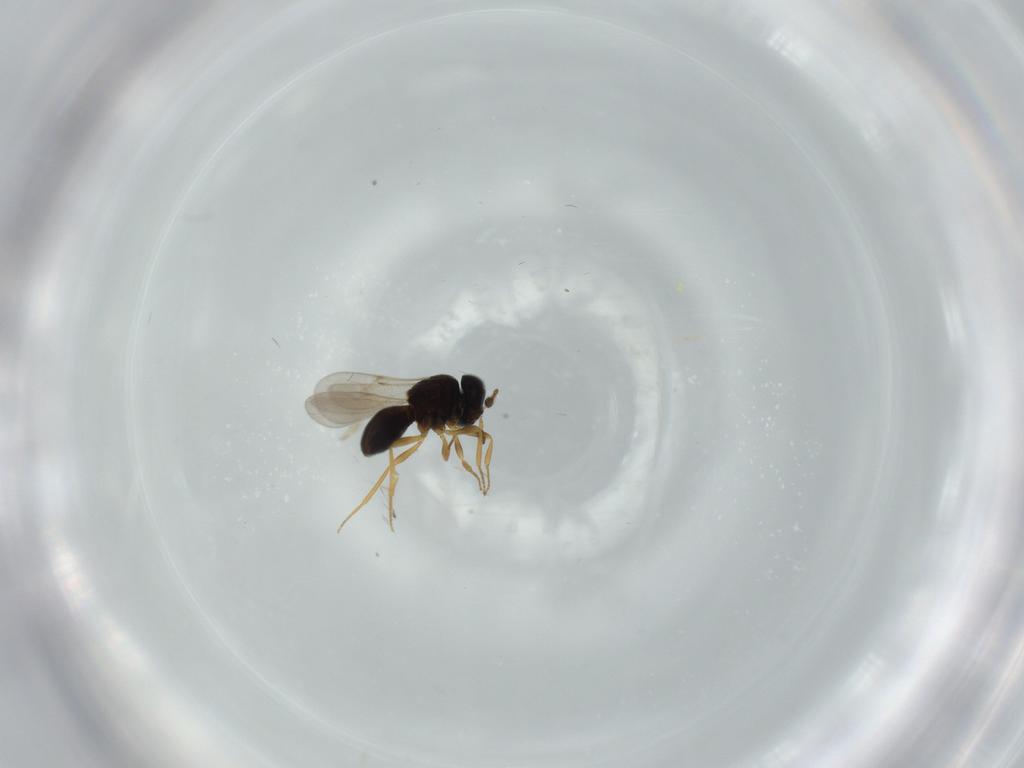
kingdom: Animalia
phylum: Arthropoda
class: Insecta
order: Hymenoptera
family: Scelionidae
